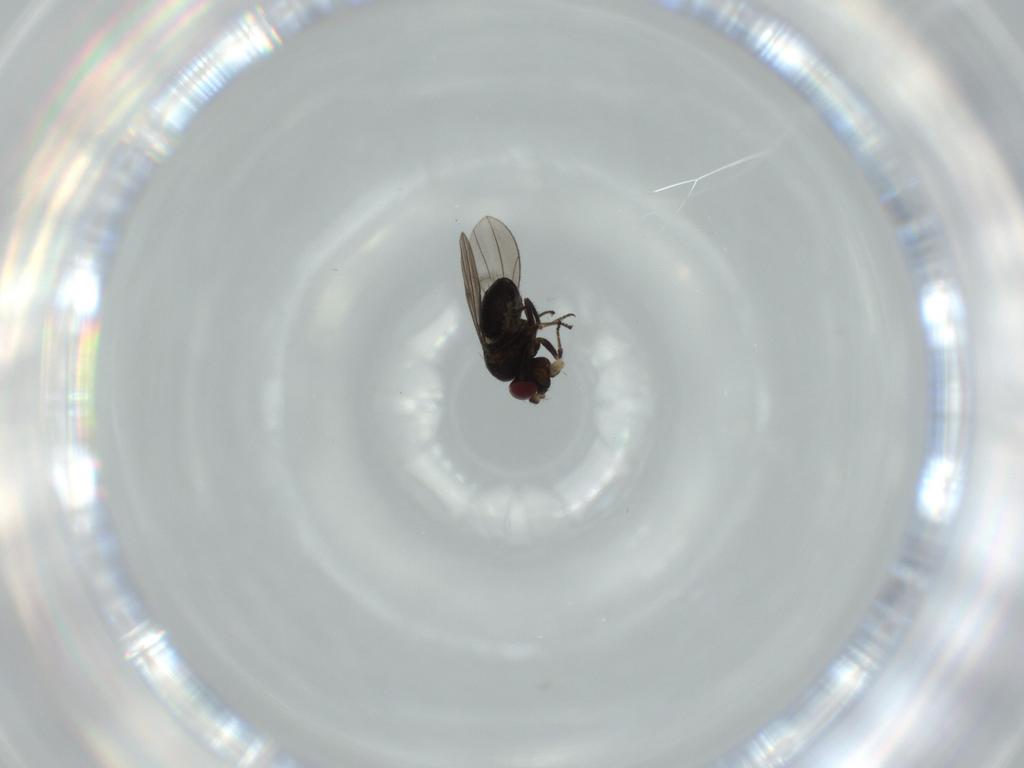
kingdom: Animalia
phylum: Arthropoda
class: Insecta
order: Diptera
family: Ephydridae
